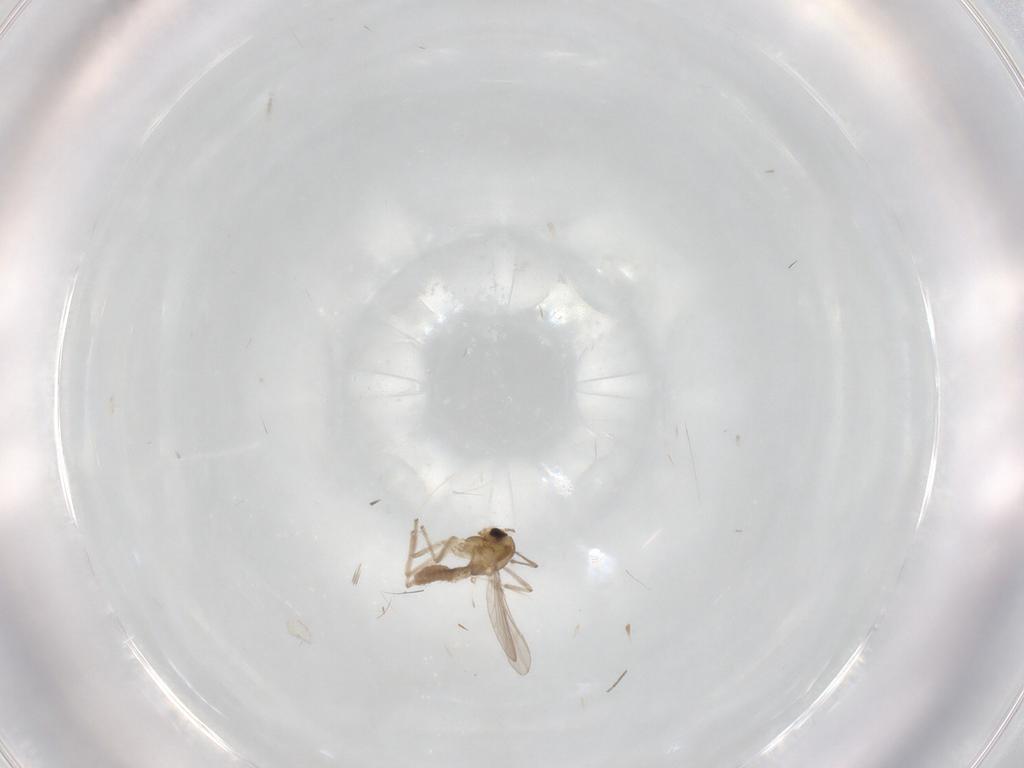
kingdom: Animalia
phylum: Arthropoda
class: Insecta
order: Diptera
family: Chironomidae
